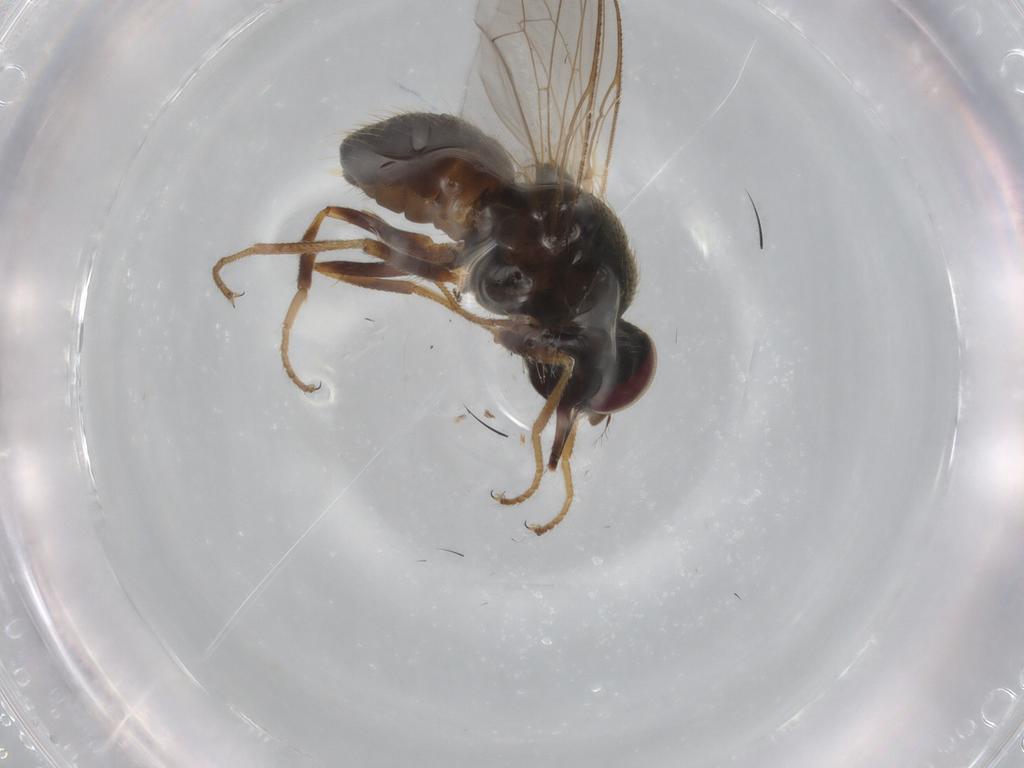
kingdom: Animalia
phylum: Arthropoda
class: Insecta
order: Diptera
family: Muscidae
